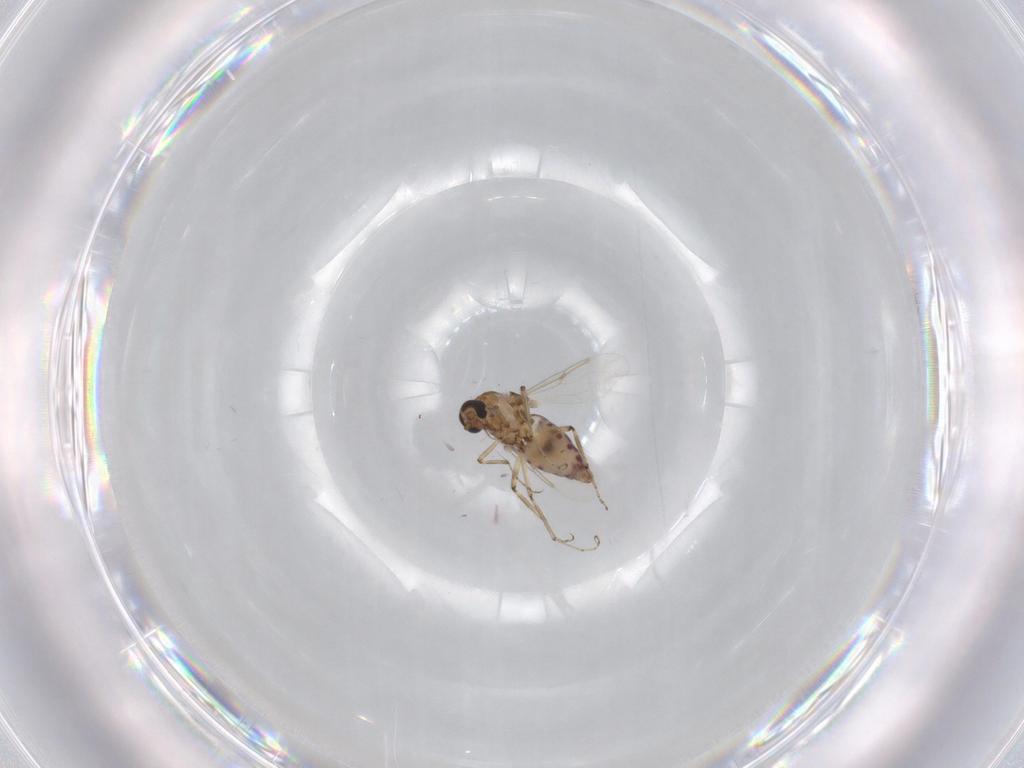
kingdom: Animalia
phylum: Arthropoda
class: Insecta
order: Diptera
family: Ceratopogonidae
